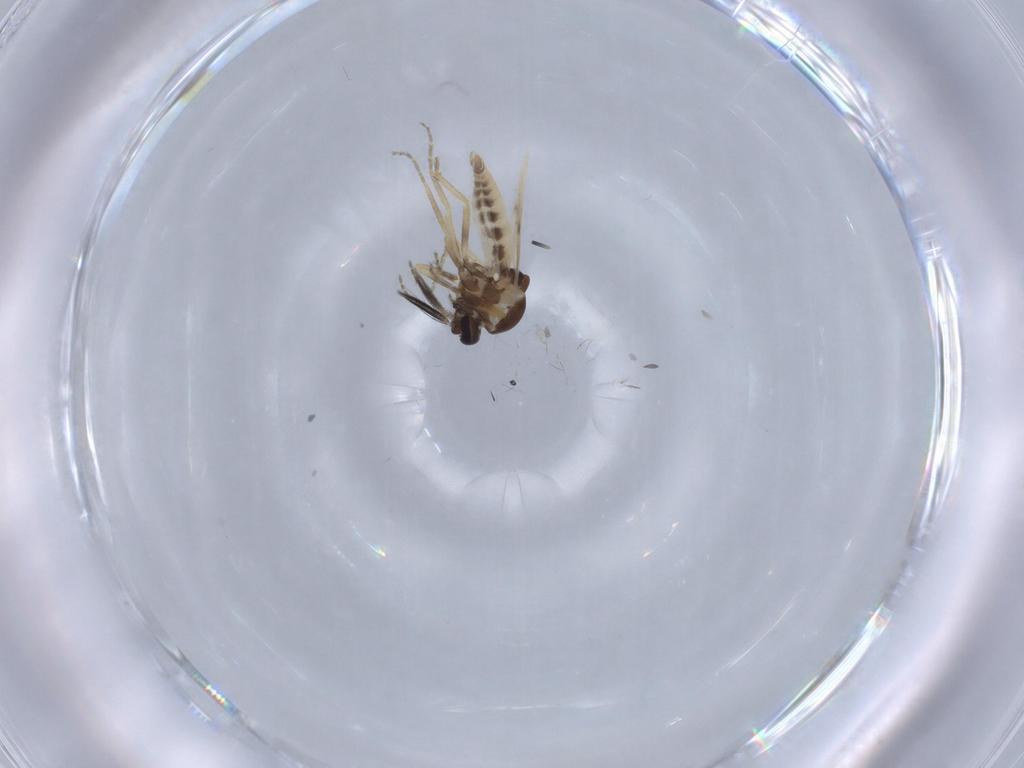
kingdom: Animalia
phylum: Arthropoda
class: Insecta
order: Diptera
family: Ceratopogonidae
